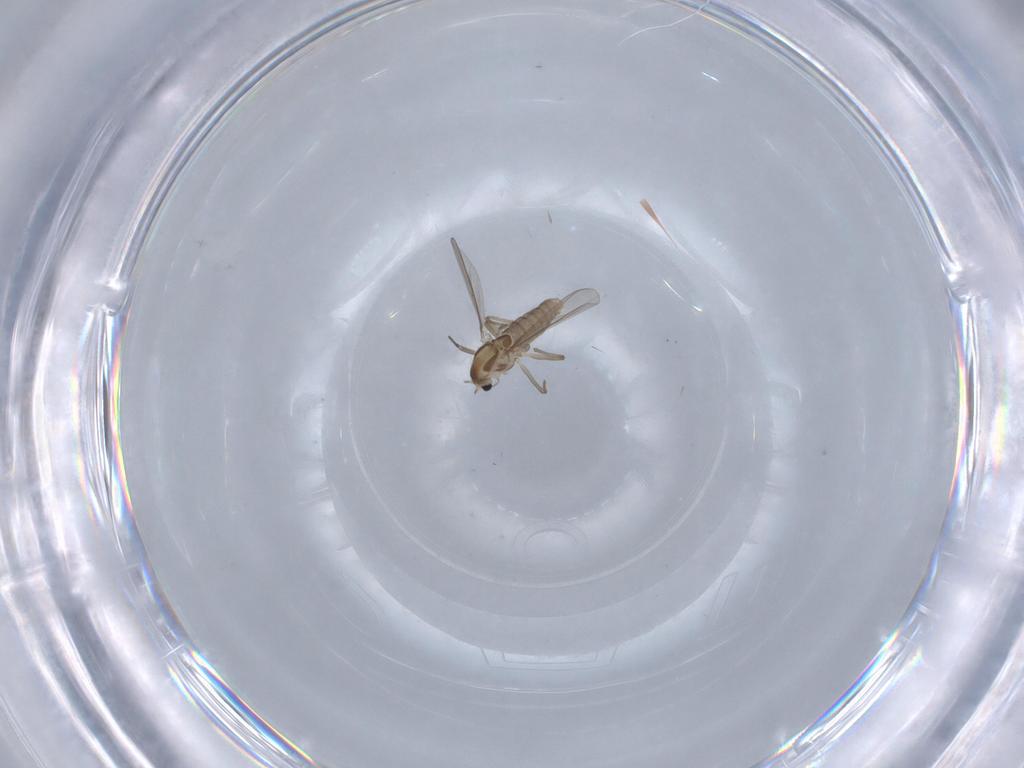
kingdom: Animalia
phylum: Arthropoda
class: Insecta
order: Diptera
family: Chironomidae
